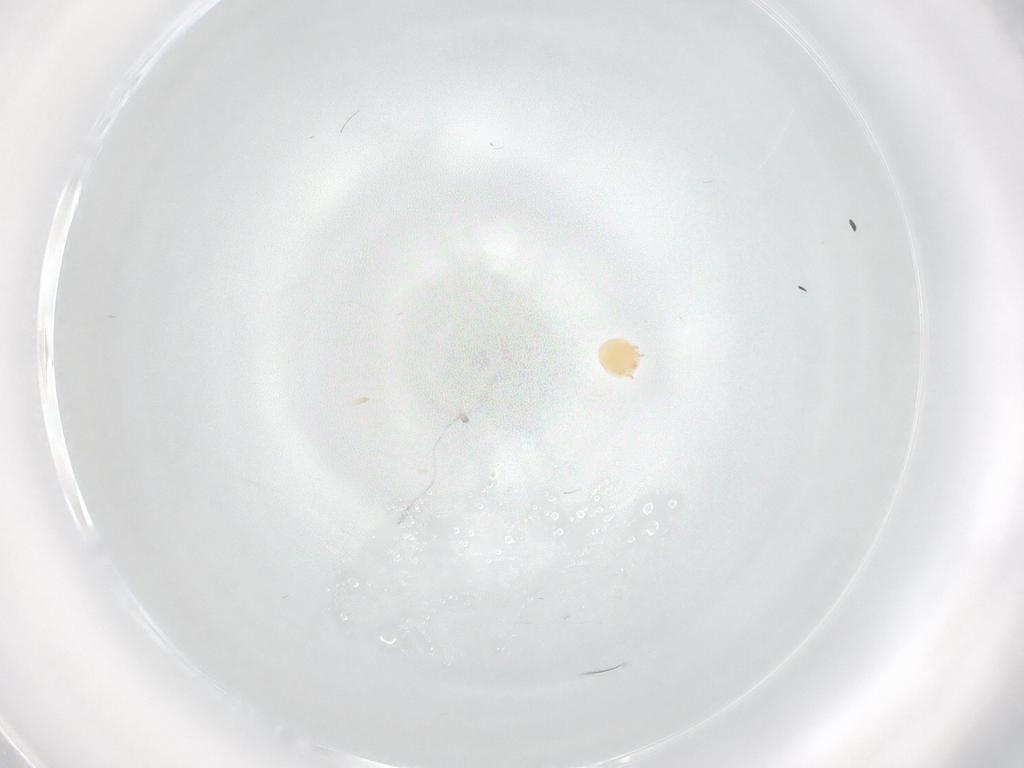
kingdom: Animalia
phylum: Arthropoda
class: Arachnida
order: Trombidiformes
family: Limnesiidae
